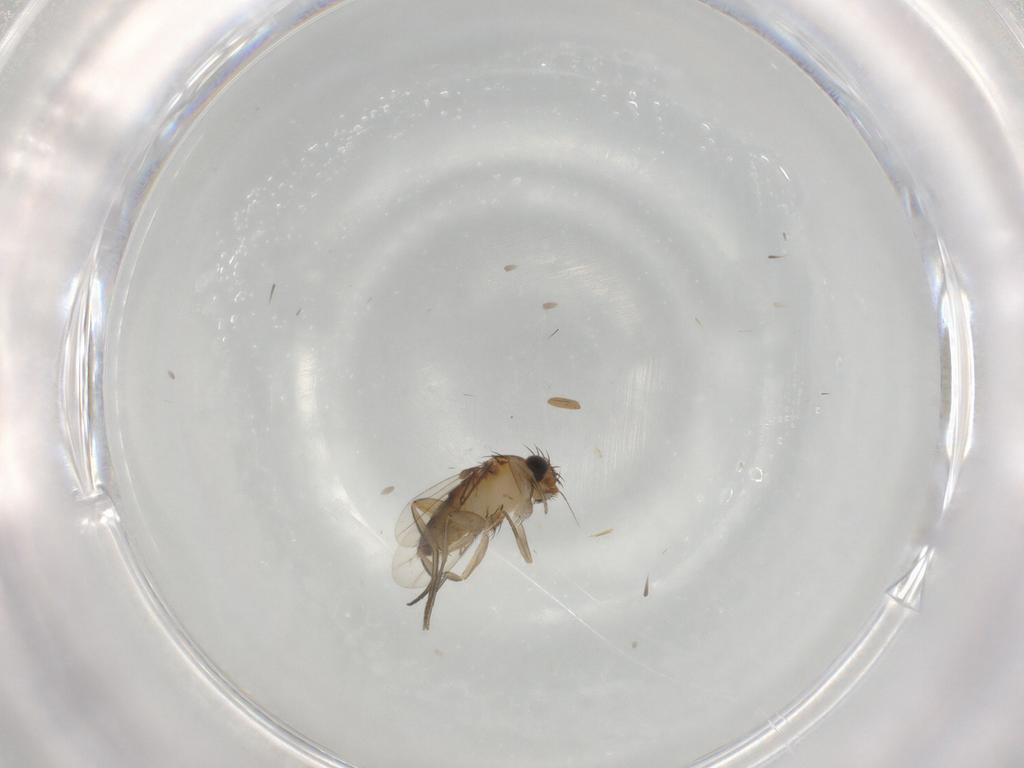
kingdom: Animalia
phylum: Arthropoda
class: Insecta
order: Diptera
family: Phoridae
